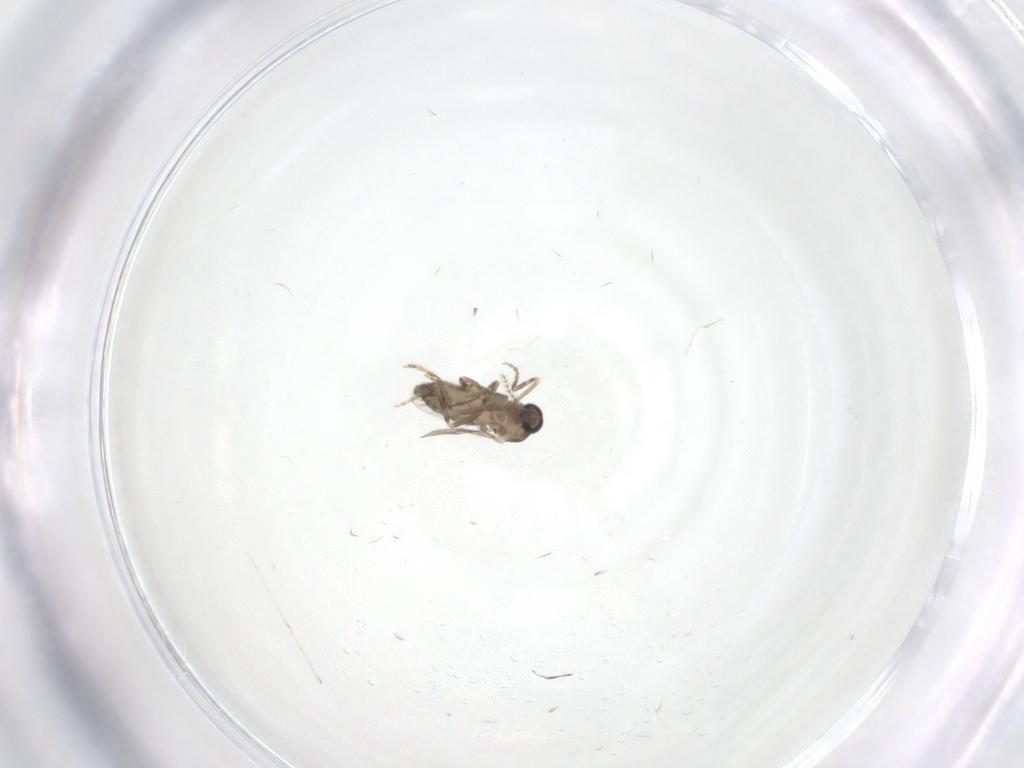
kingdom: Animalia
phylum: Arthropoda
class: Insecta
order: Diptera
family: Ceratopogonidae
